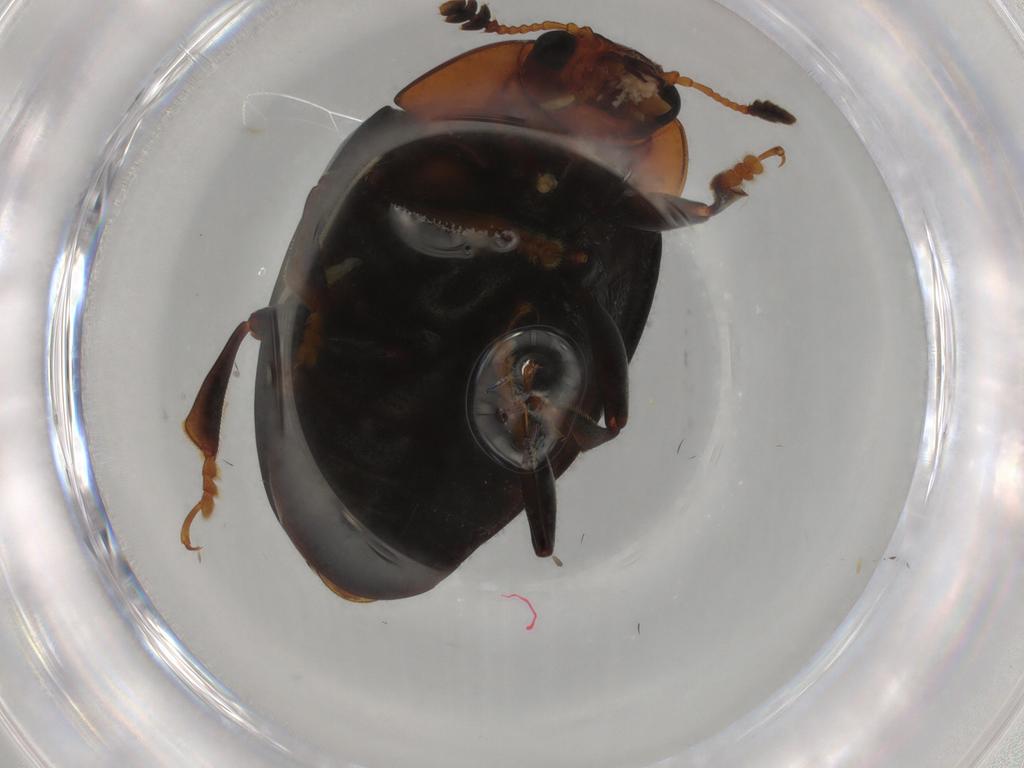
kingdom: Animalia
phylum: Arthropoda
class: Insecta
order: Coleoptera
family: Erotylidae
